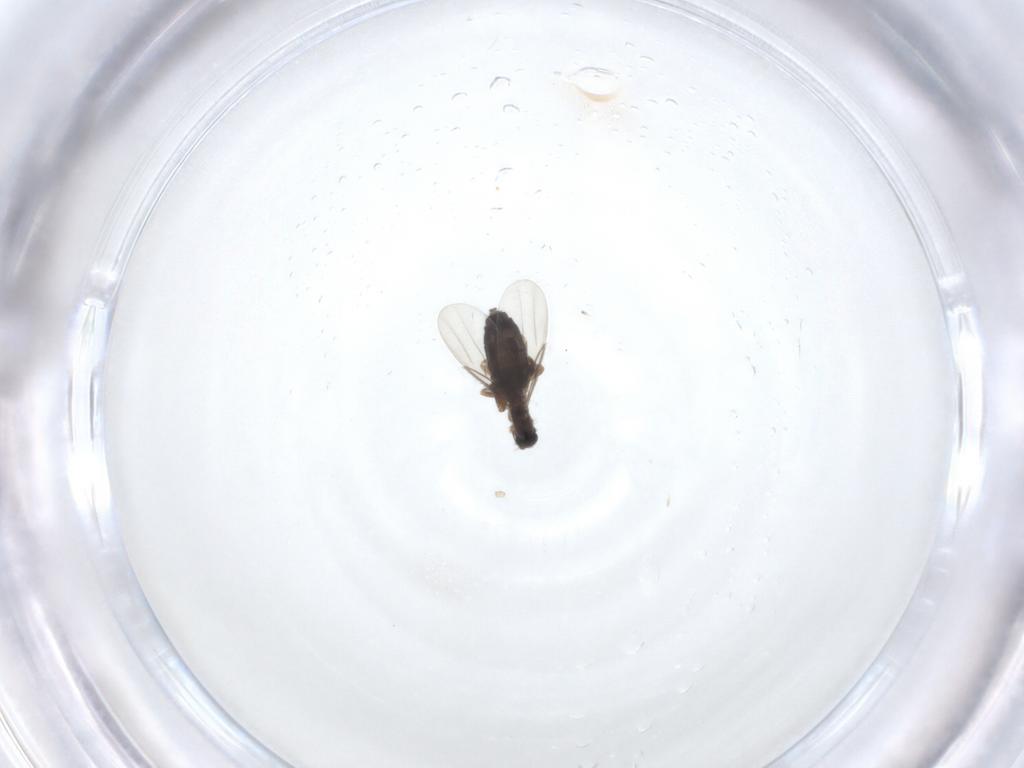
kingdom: Animalia
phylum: Arthropoda
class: Insecta
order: Diptera
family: Phoridae
